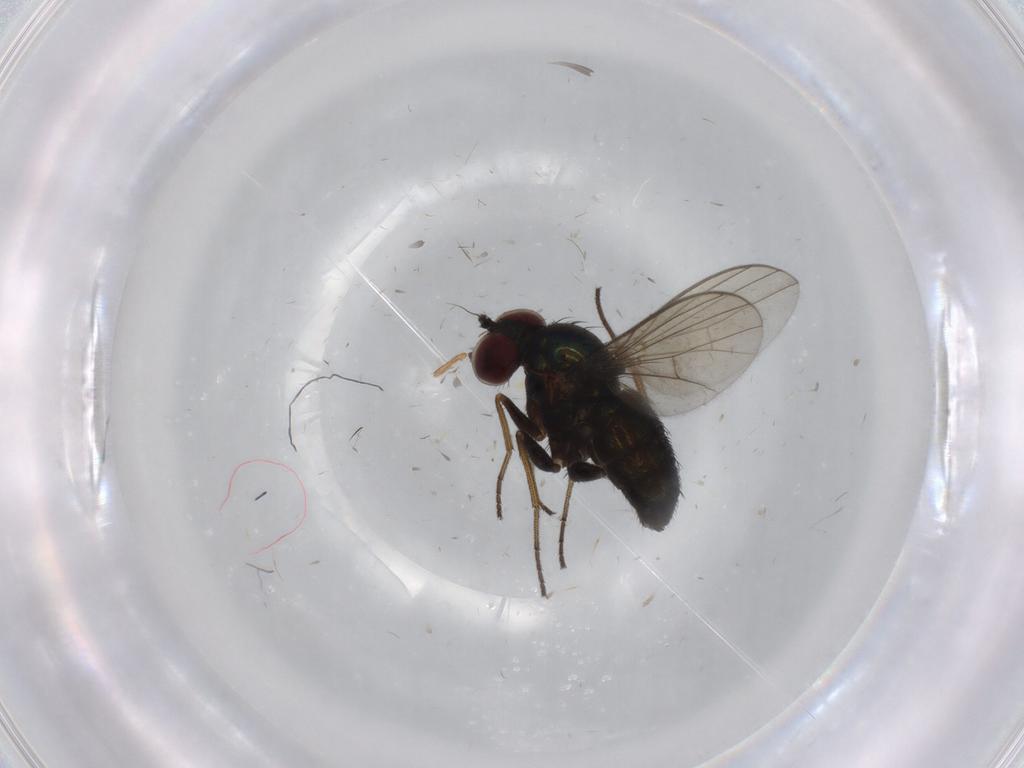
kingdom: Animalia
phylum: Arthropoda
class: Insecta
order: Diptera
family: Dolichopodidae
